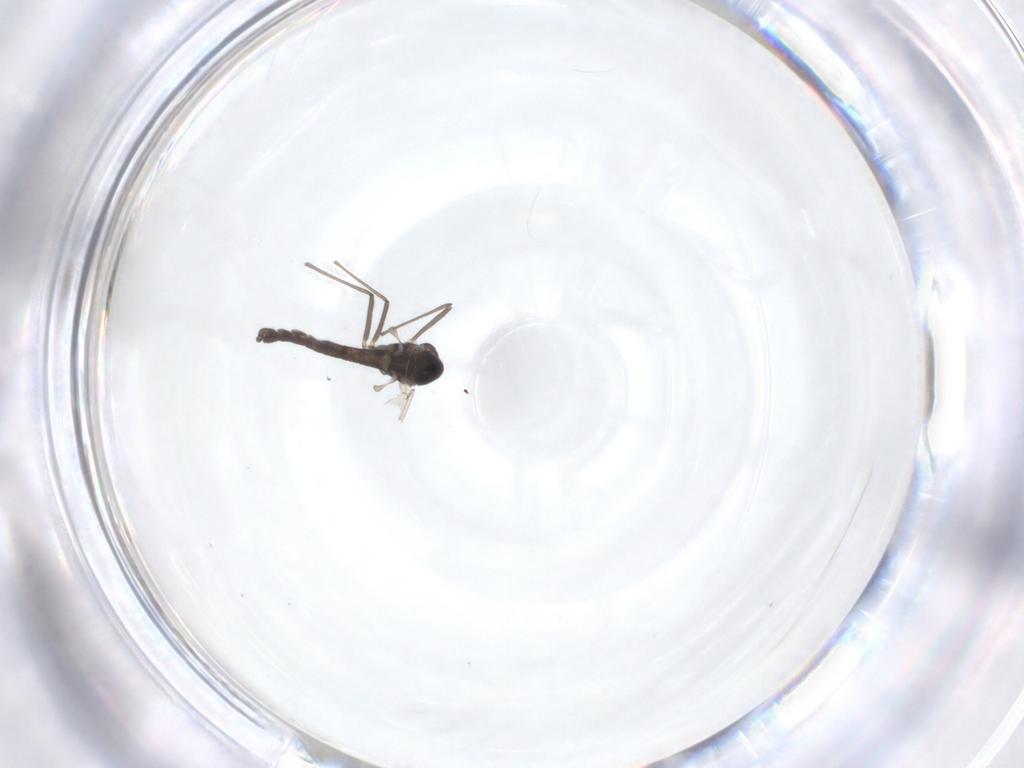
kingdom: Animalia
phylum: Arthropoda
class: Insecta
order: Diptera
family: Chironomidae
